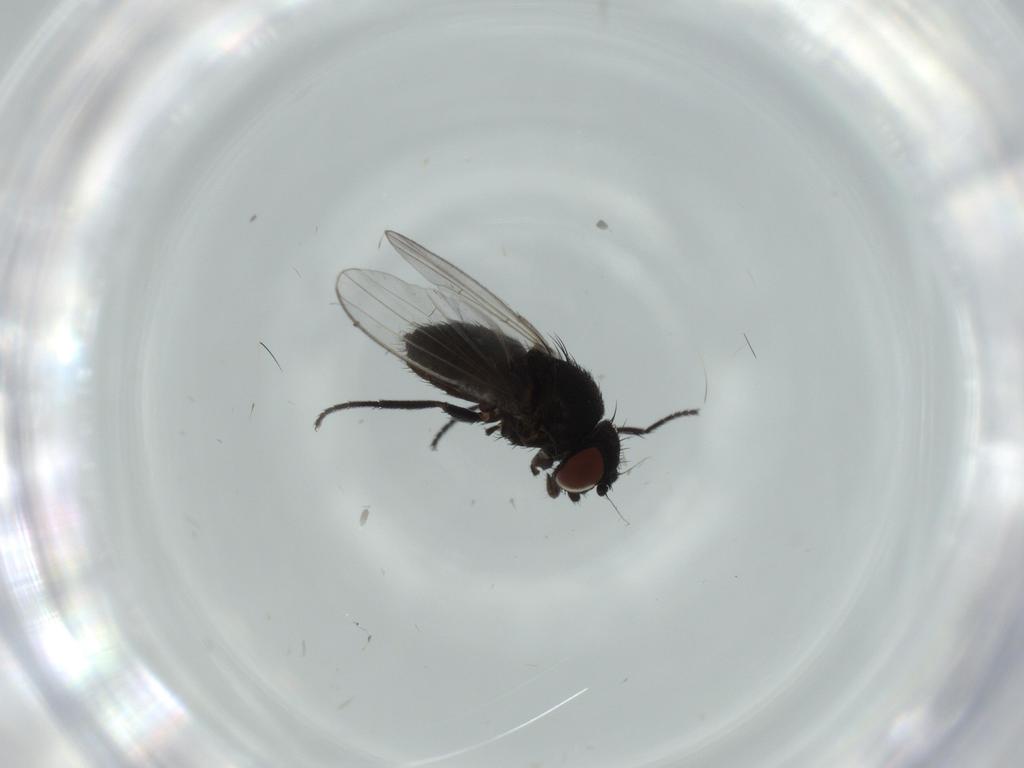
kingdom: Animalia
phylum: Arthropoda
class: Insecta
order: Diptera
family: Milichiidae
